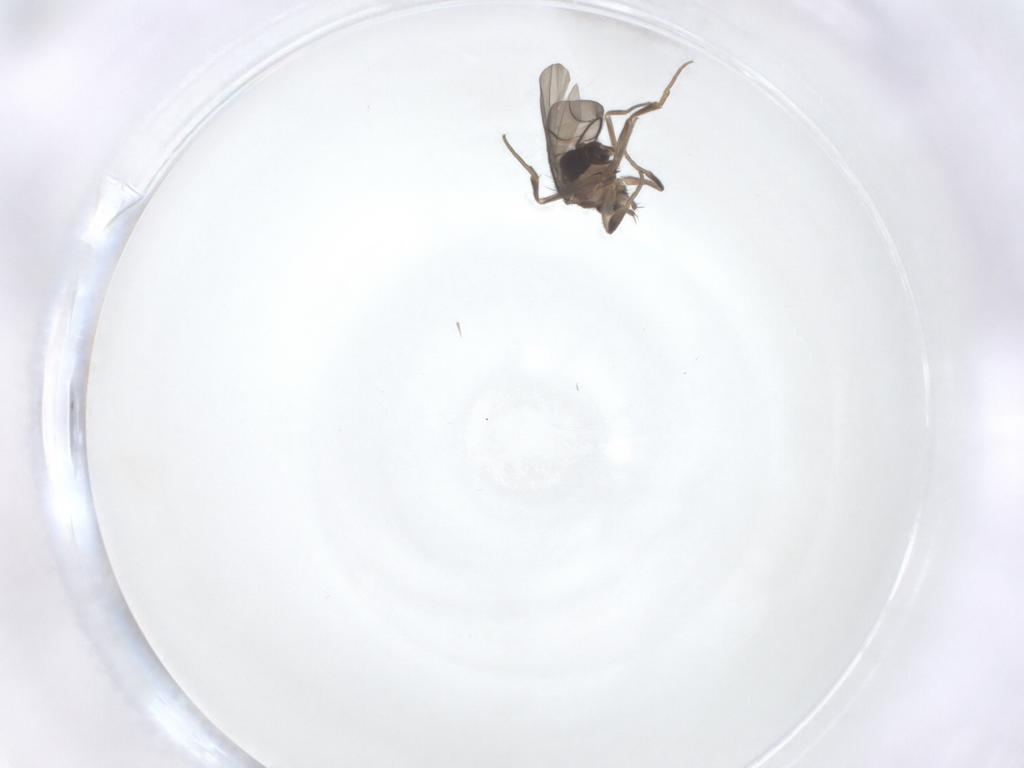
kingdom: Animalia
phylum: Arthropoda
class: Insecta
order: Diptera
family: Phoridae
